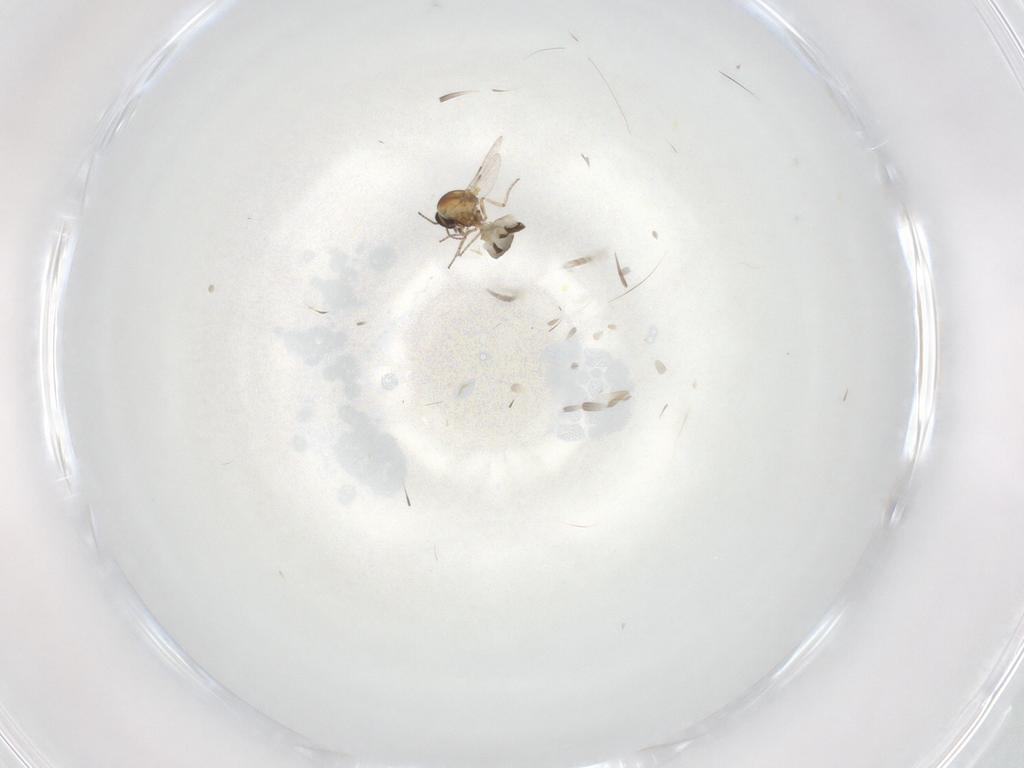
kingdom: Animalia
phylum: Arthropoda
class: Insecta
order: Diptera
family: Ceratopogonidae
